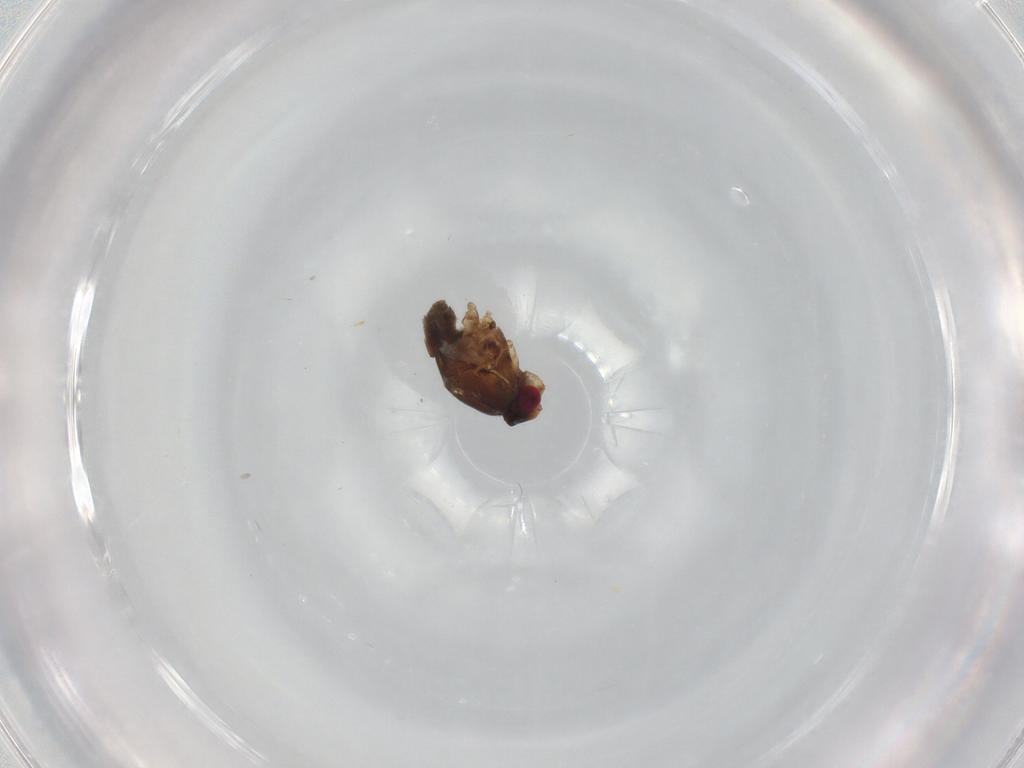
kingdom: Animalia
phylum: Arthropoda
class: Insecta
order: Diptera
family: Sphaeroceridae
